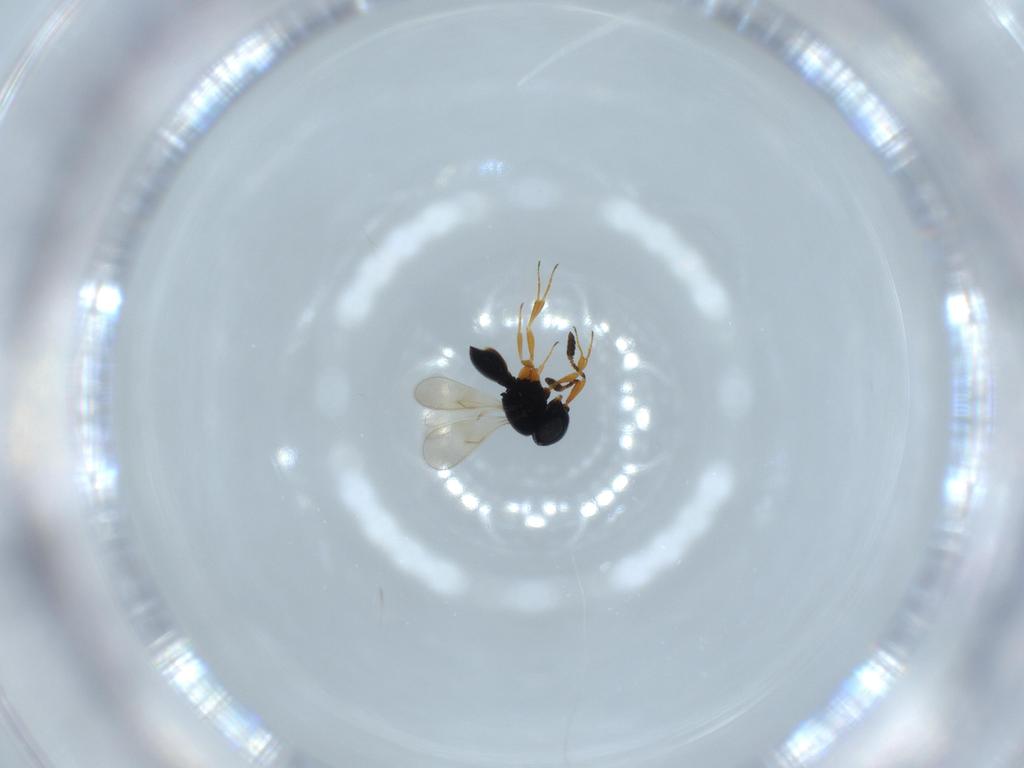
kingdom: Animalia
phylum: Arthropoda
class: Insecta
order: Hymenoptera
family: Scelionidae
